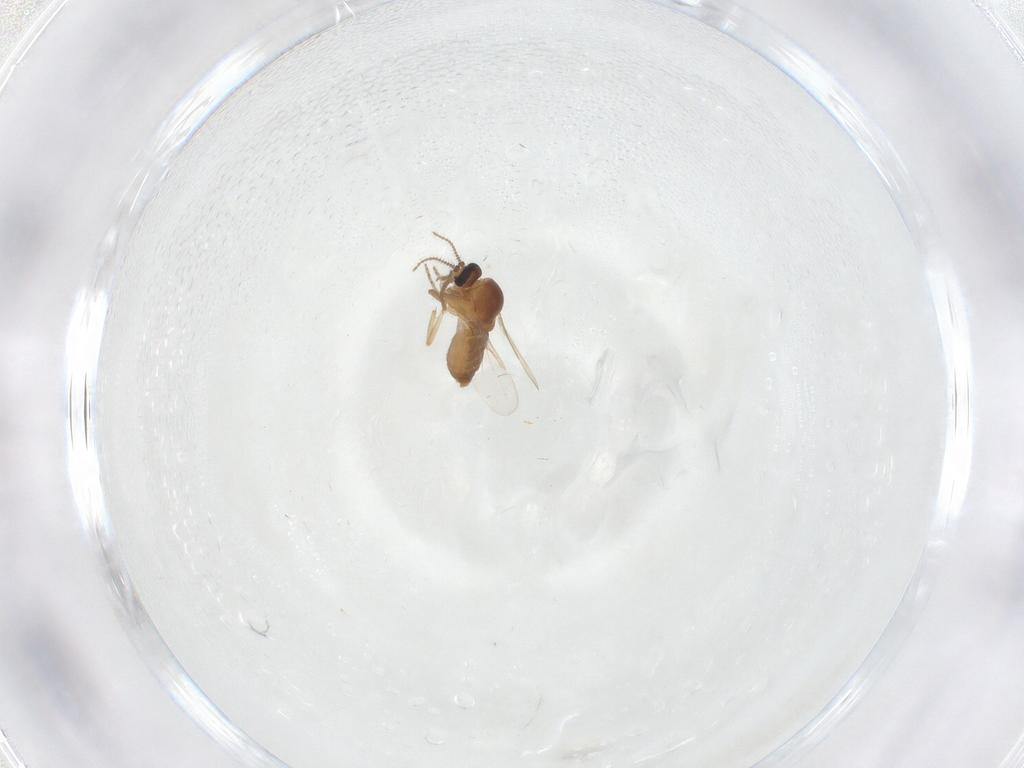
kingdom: Animalia
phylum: Arthropoda
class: Insecta
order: Diptera
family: Ceratopogonidae
